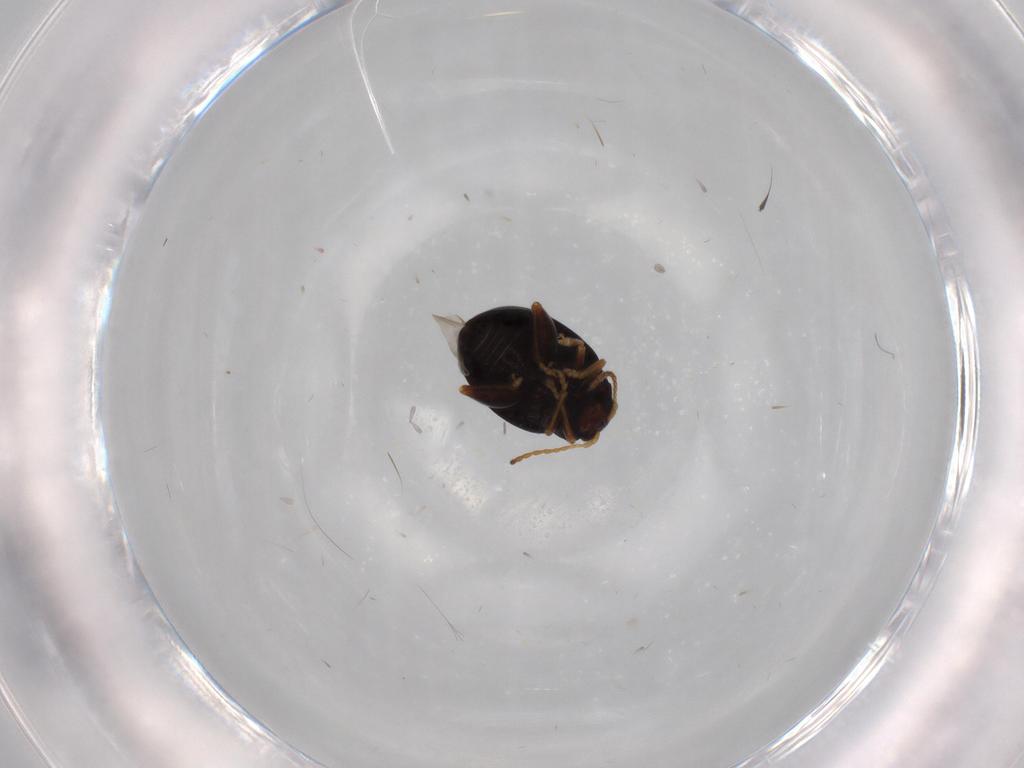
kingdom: Animalia
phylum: Arthropoda
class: Insecta
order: Coleoptera
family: Chrysomelidae
